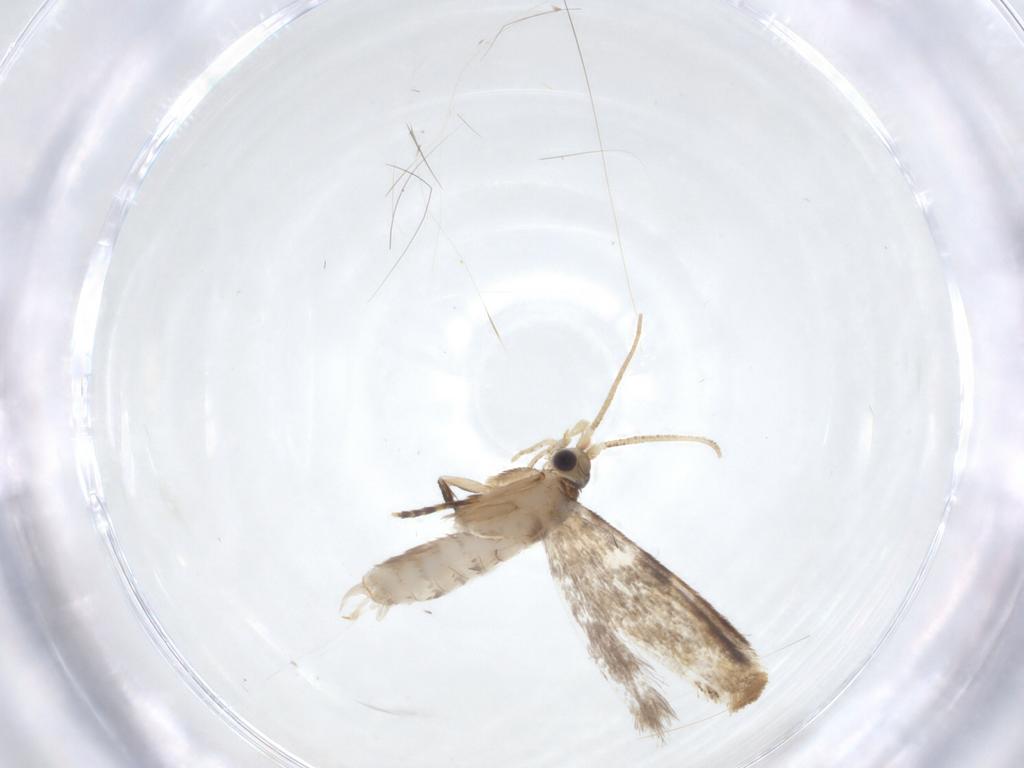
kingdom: Animalia
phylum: Arthropoda
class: Insecta
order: Lepidoptera
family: Dryadaulidae
